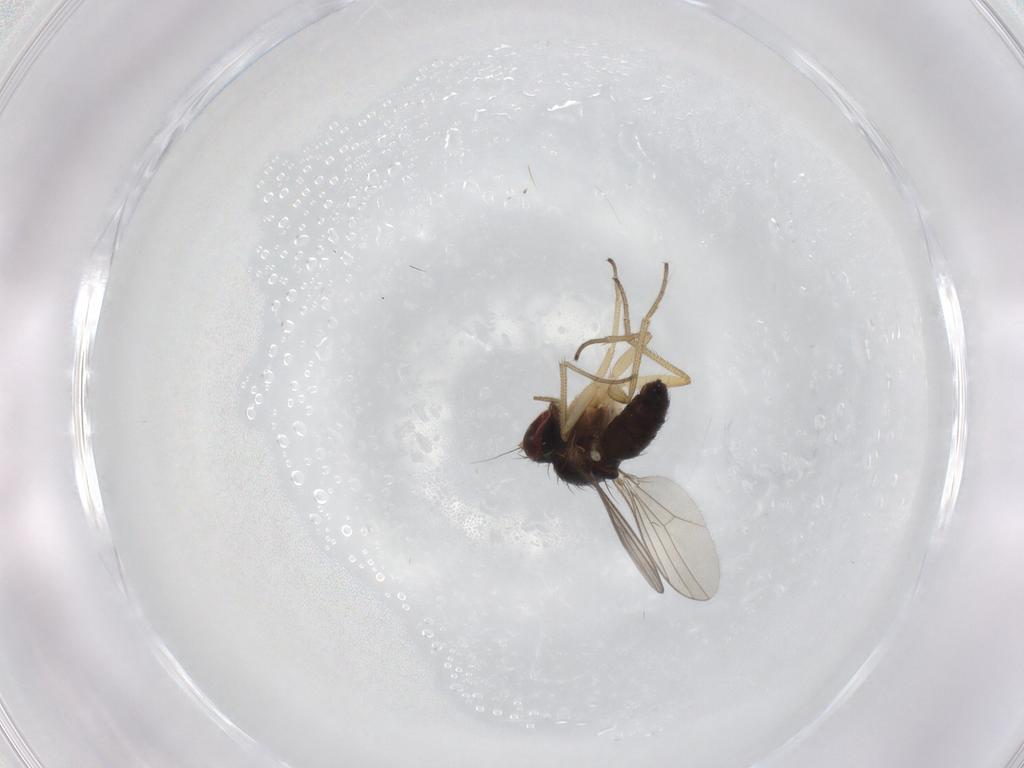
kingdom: Animalia
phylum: Arthropoda
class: Insecta
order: Diptera
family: Dolichopodidae
